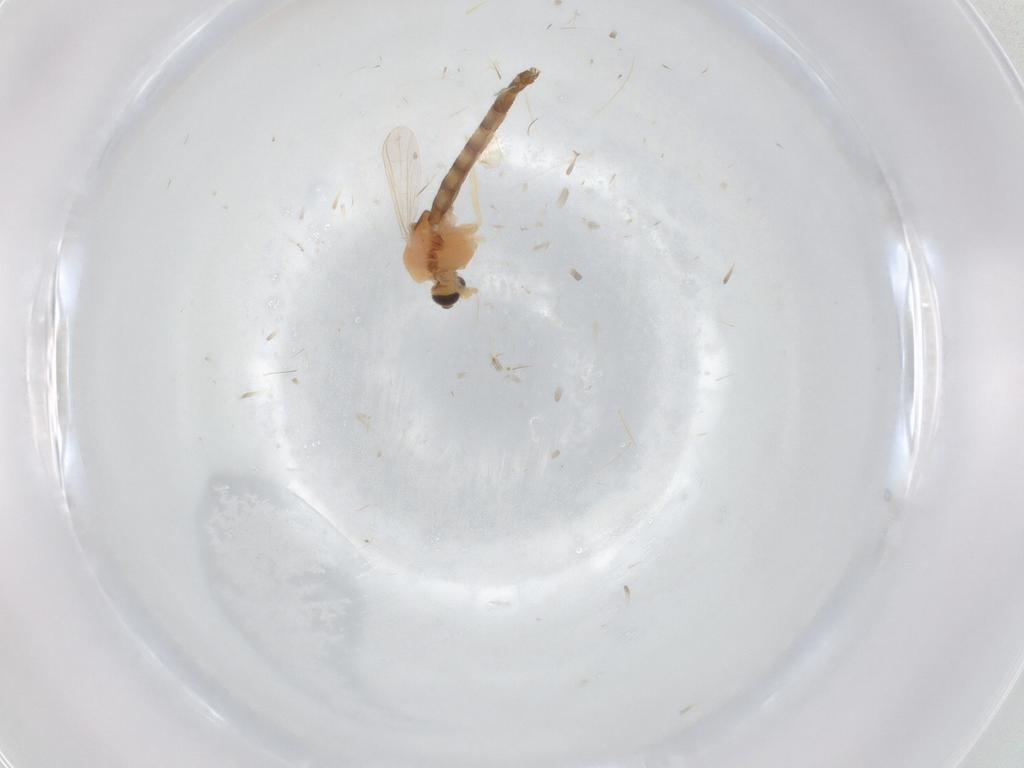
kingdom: Animalia
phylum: Arthropoda
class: Insecta
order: Diptera
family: Chironomidae
